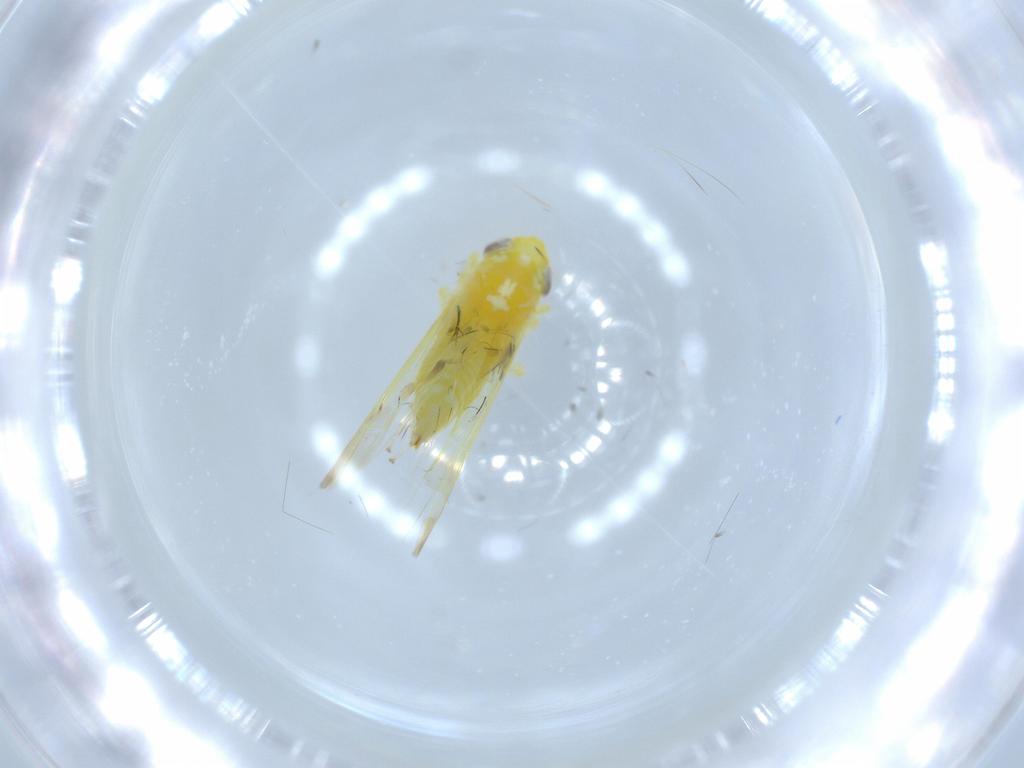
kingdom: Animalia
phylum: Arthropoda
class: Insecta
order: Hemiptera
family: Cicadellidae
